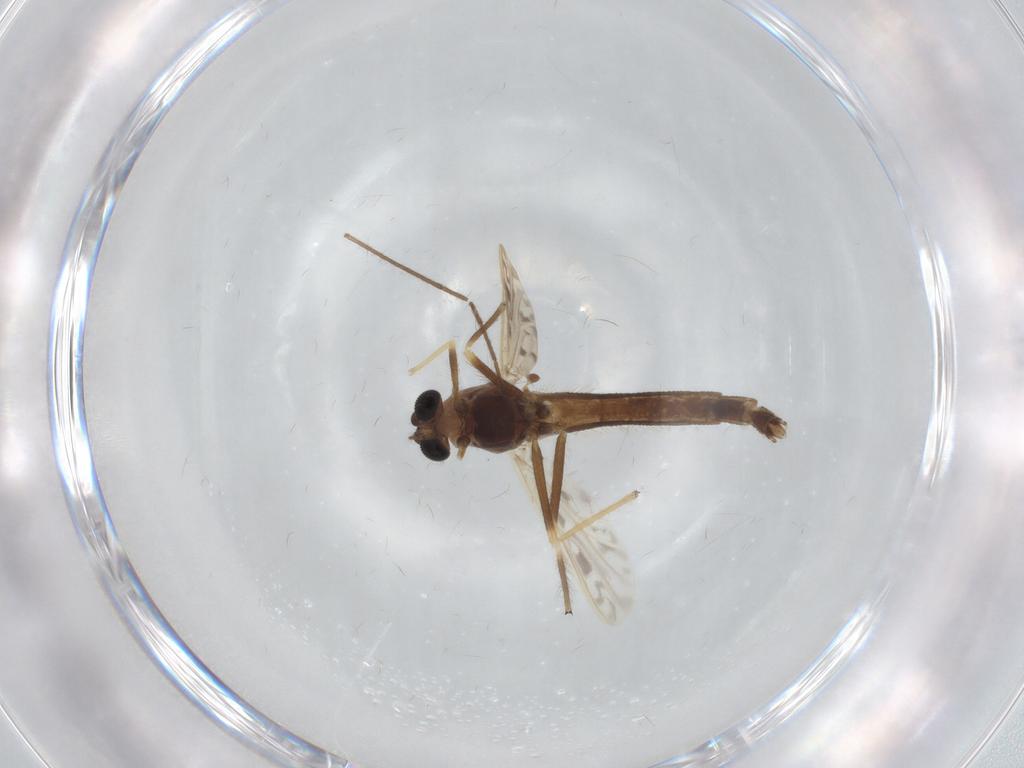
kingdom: Animalia
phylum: Arthropoda
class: Insecta
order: Diptera
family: Chironomidae
